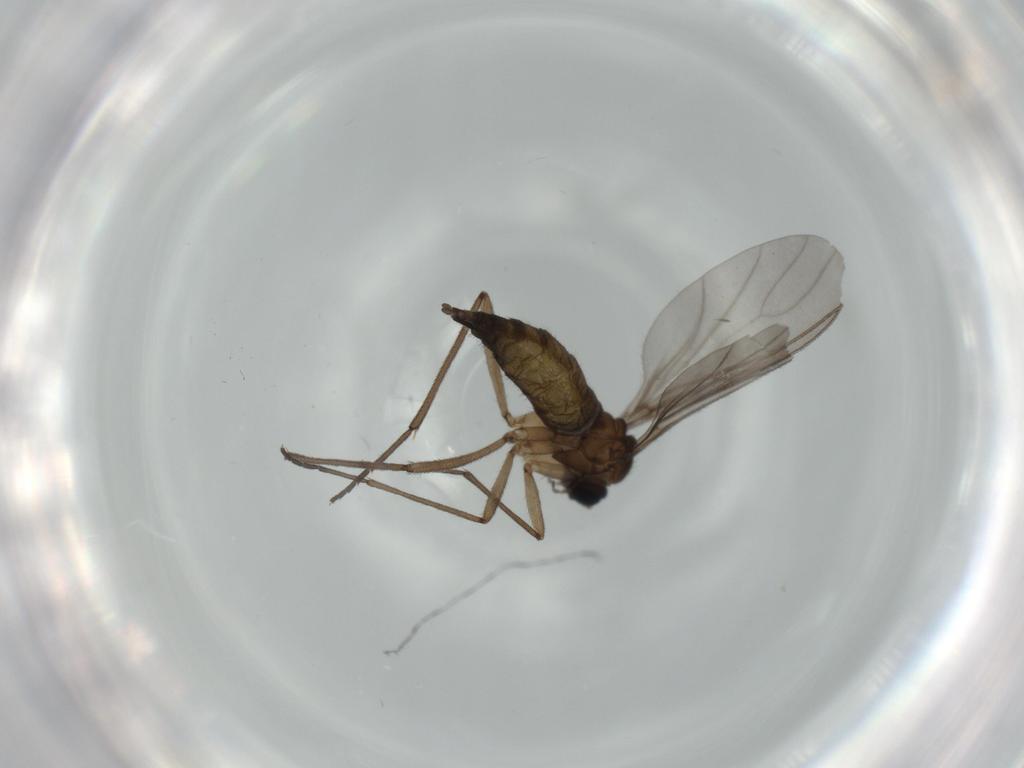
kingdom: Animalia
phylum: Arthropoda
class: Insecta
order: Diptera
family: Sciaridae
